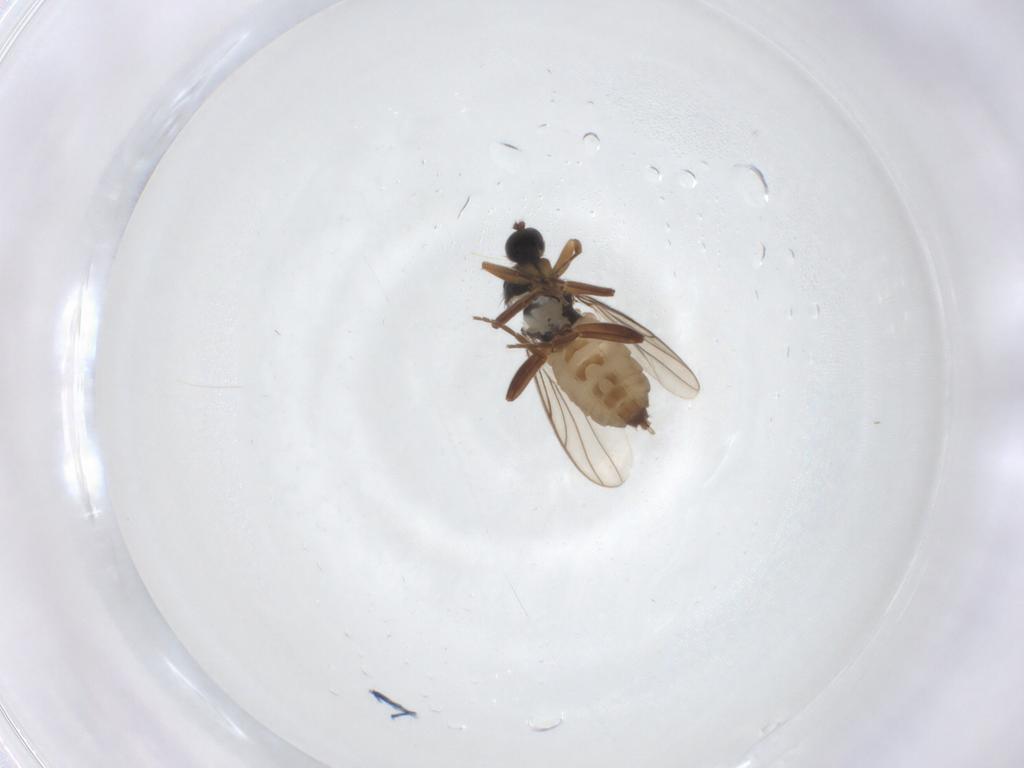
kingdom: Animalia
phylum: Arthropoda
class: Insecta
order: Diptera
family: Hybotidae
